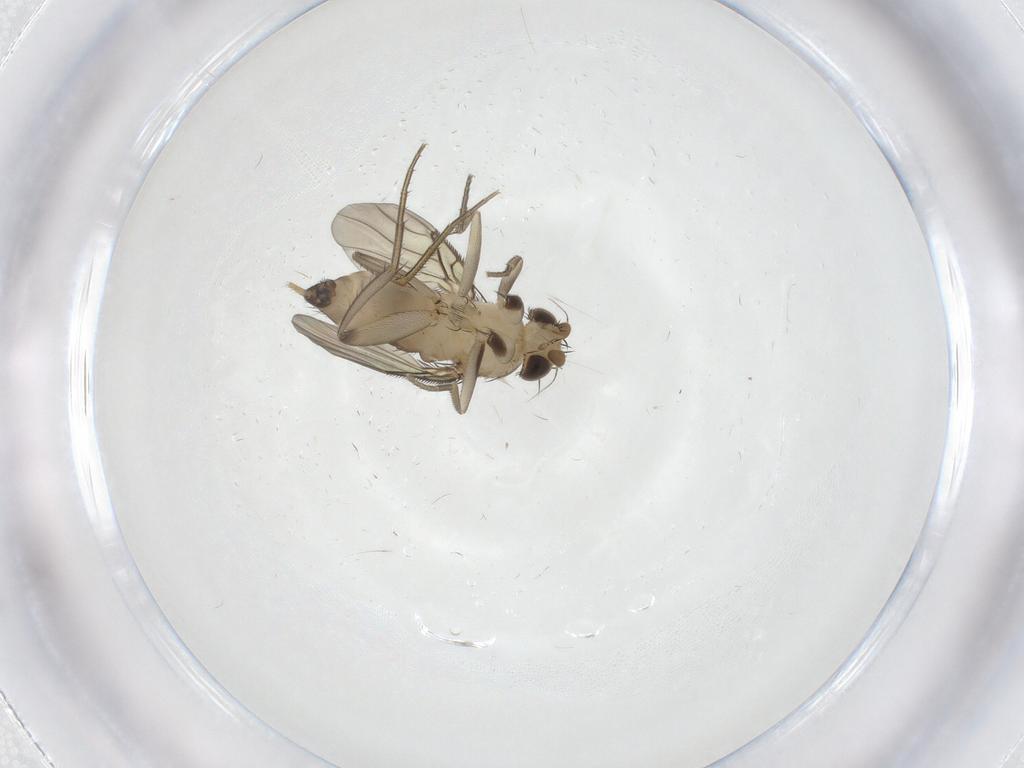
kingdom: Animalia
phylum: Arthropoda
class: Insecta
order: Diptera
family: Phoridae
